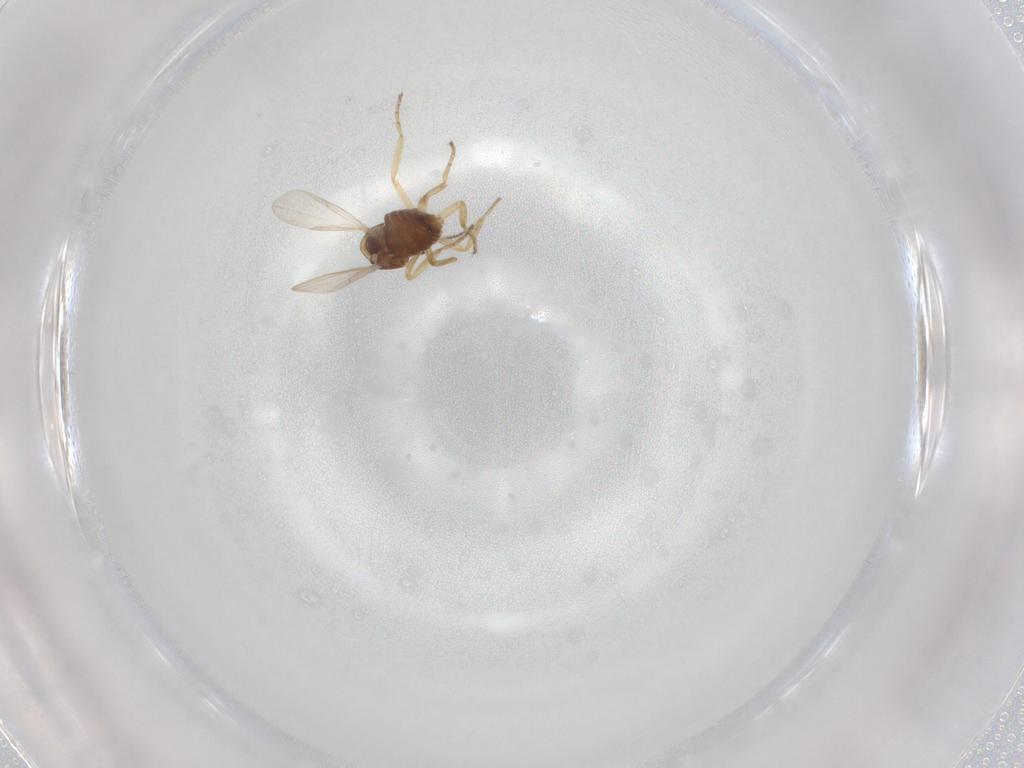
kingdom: Animalia
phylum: Arthropoda
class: Insecta
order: Diptera
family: Ceratopogonidae
